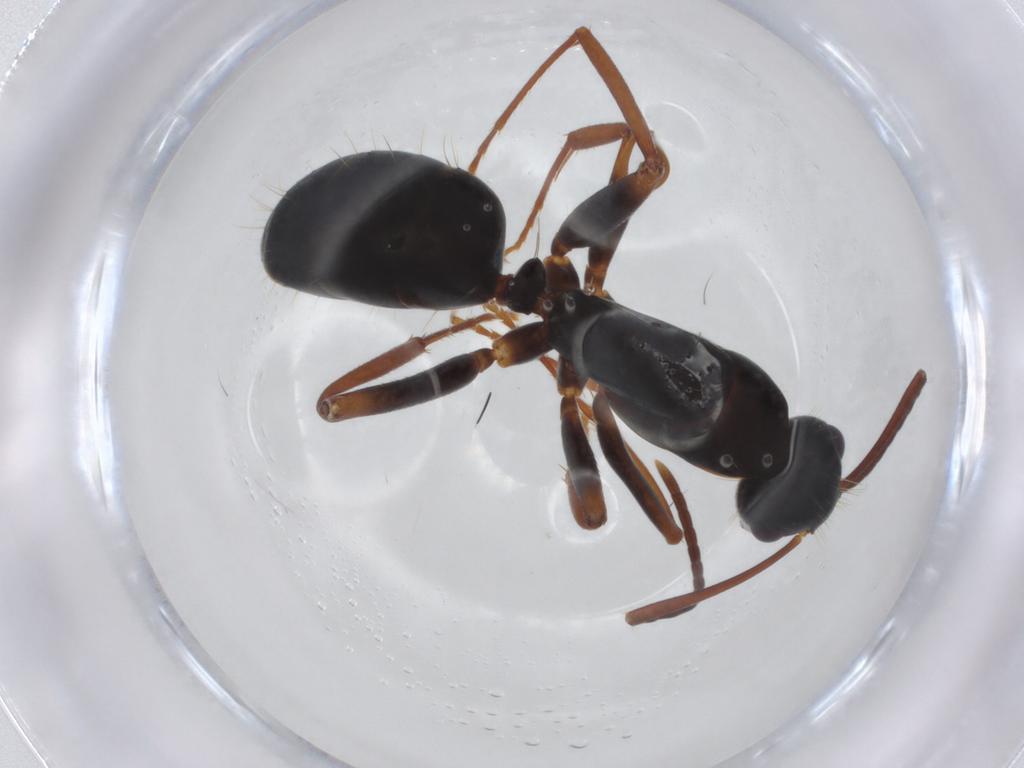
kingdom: Animalia
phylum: Arthropoda
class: Insecta
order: Hymenoptera
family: Formicidae
